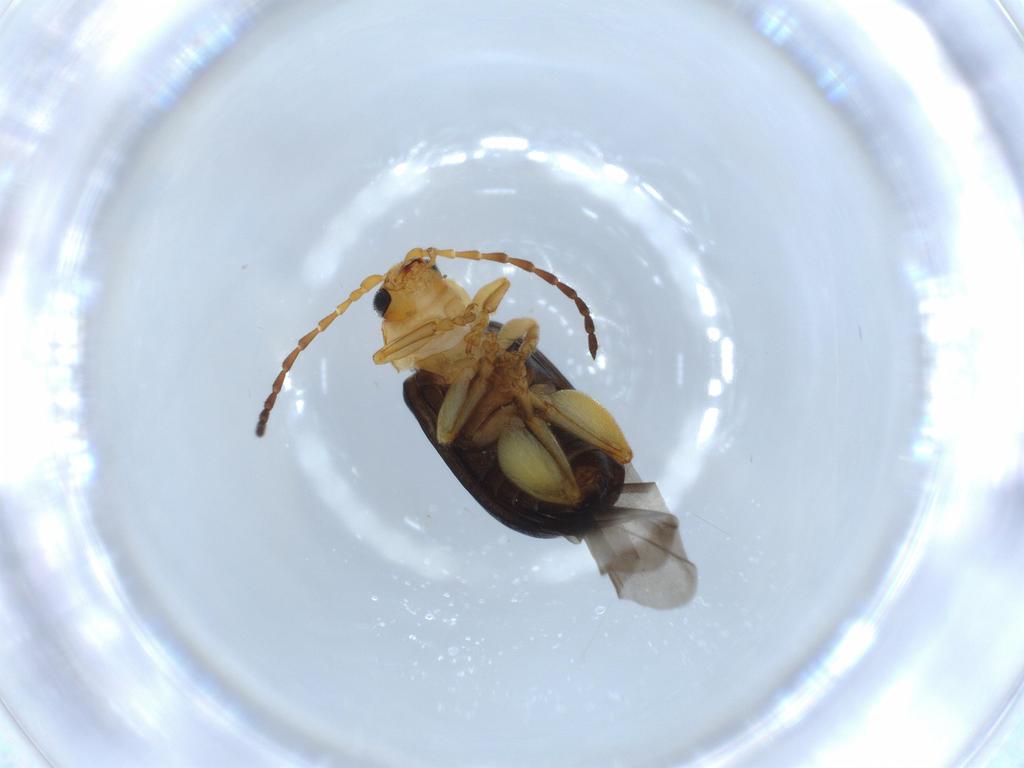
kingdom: Animalia
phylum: Arthropoda
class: Insecta
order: Coleoptera
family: Chrysomelidae
